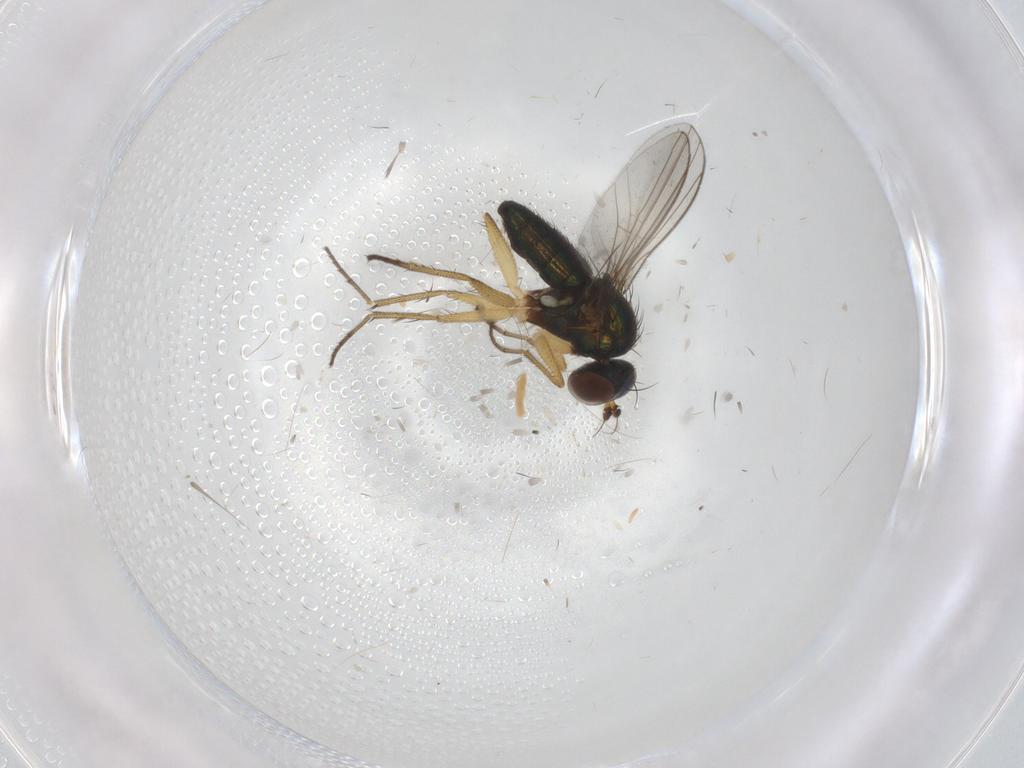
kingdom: Animalia
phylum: Arthropoda
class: Insecta
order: Diptera
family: Dolichopodidae
